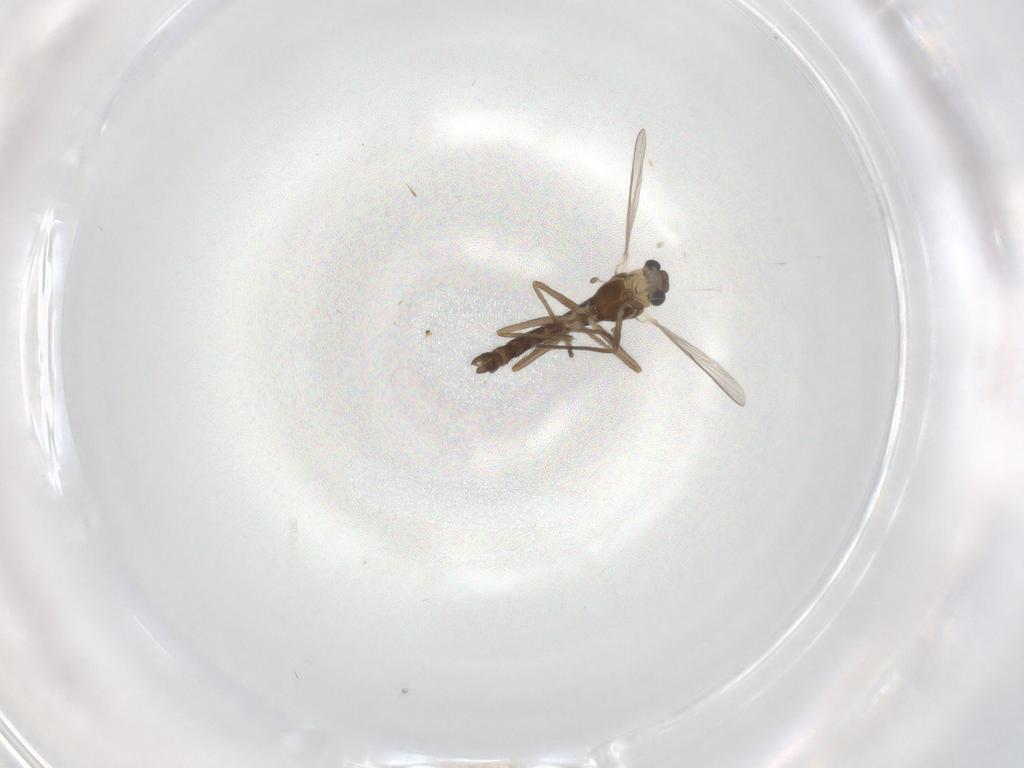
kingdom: Animalia
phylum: Arthropoda
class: Insecta
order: Diptera
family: Chironomidae
